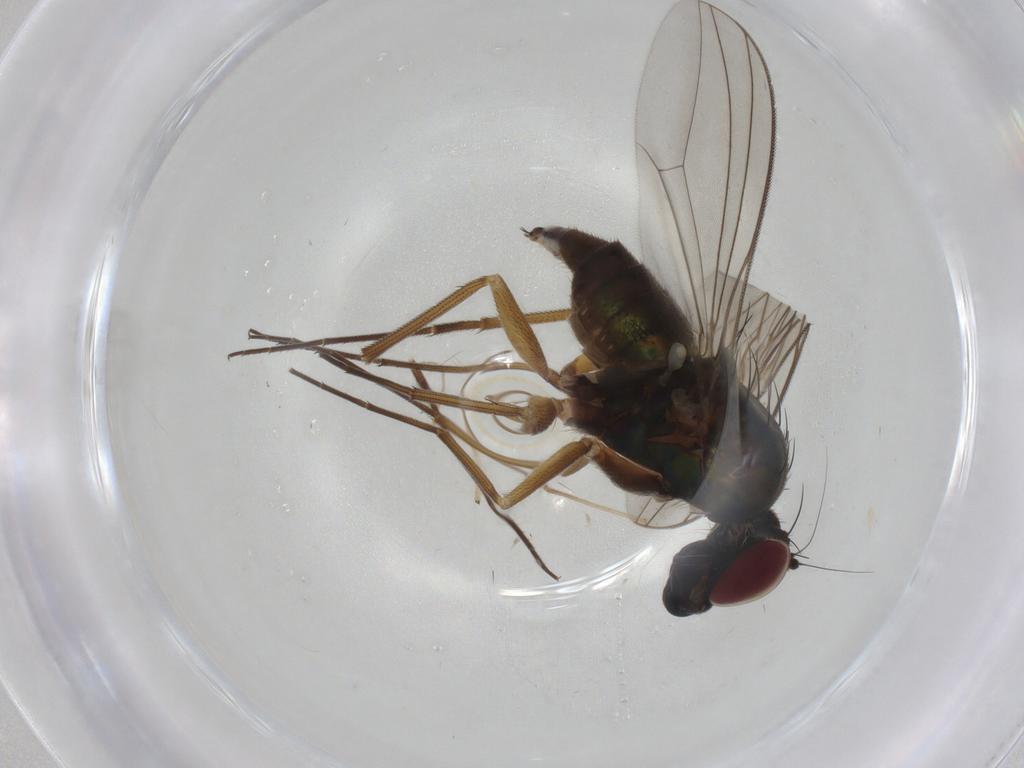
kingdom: Animalia
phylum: Arthropoda
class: Insecta
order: Diptera
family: Dolichopodidae
